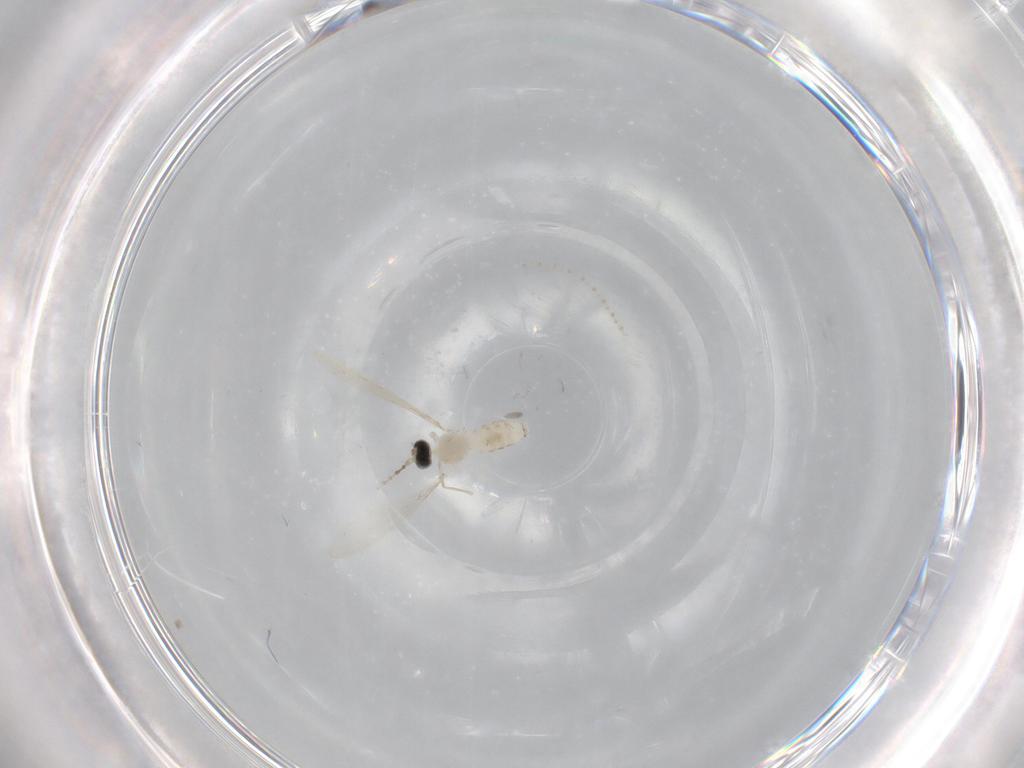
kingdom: Animalia
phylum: Arthropoda
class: Insecta
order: Diptera
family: Cecidomyiidae
